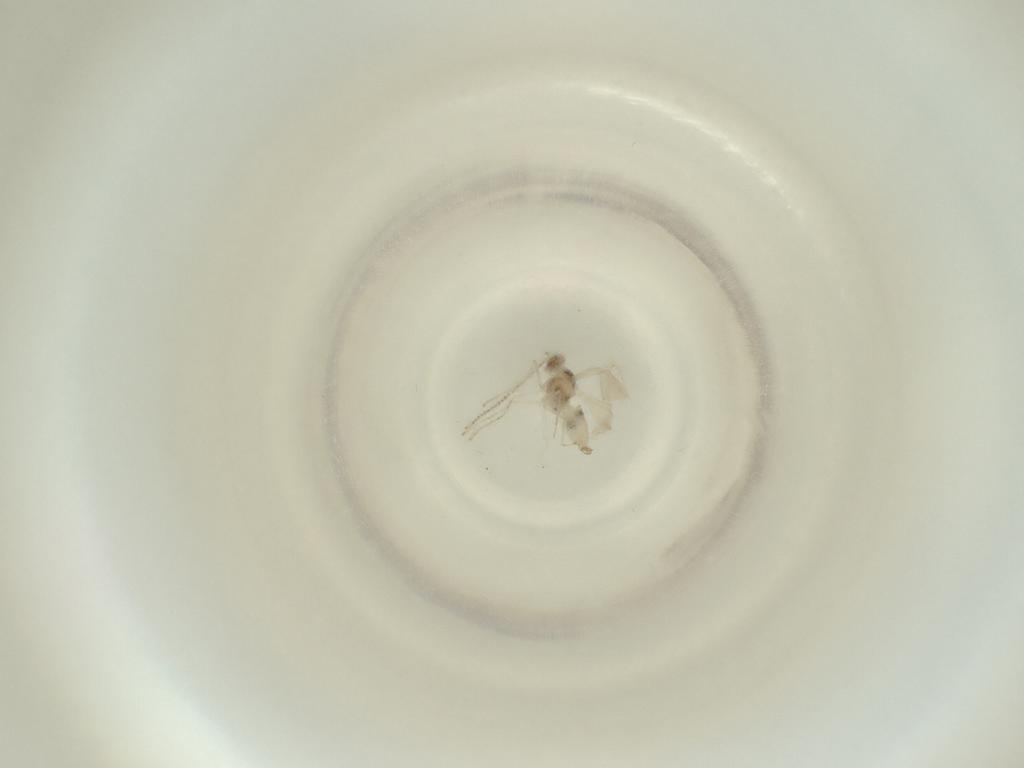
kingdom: Animalia
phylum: Arthropoda
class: Insecta
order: Diptera
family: Cecidomyiidae
